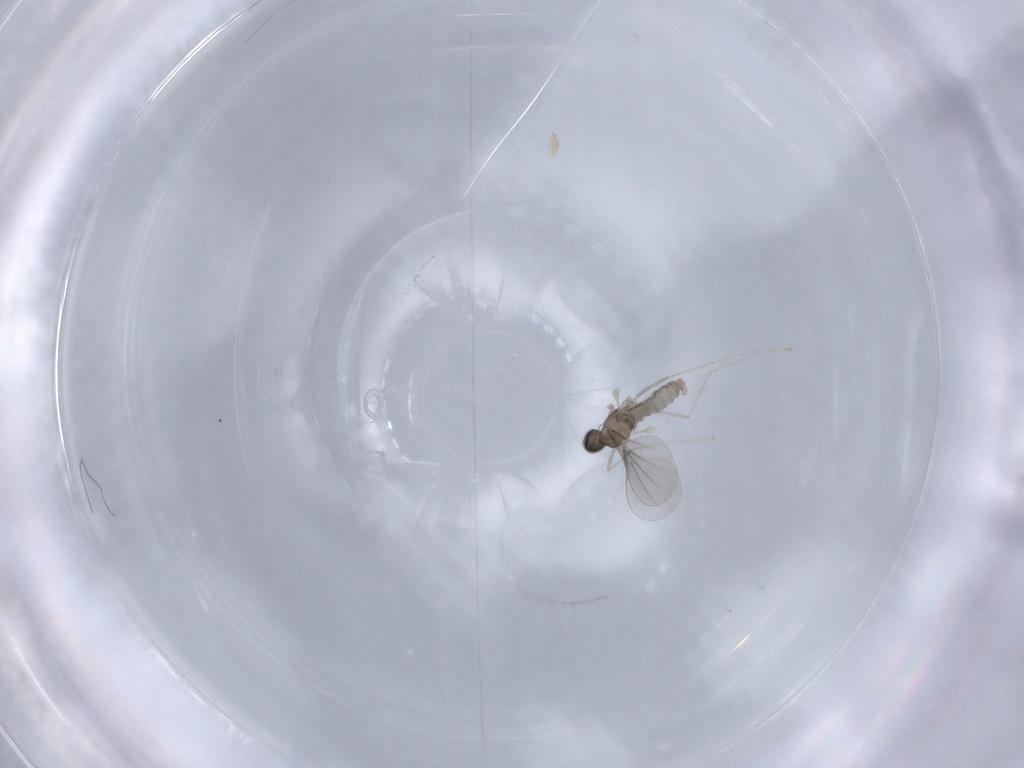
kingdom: Animalia
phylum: Arthropoda
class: Insecta
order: Diptera
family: Cecidomyiidae
